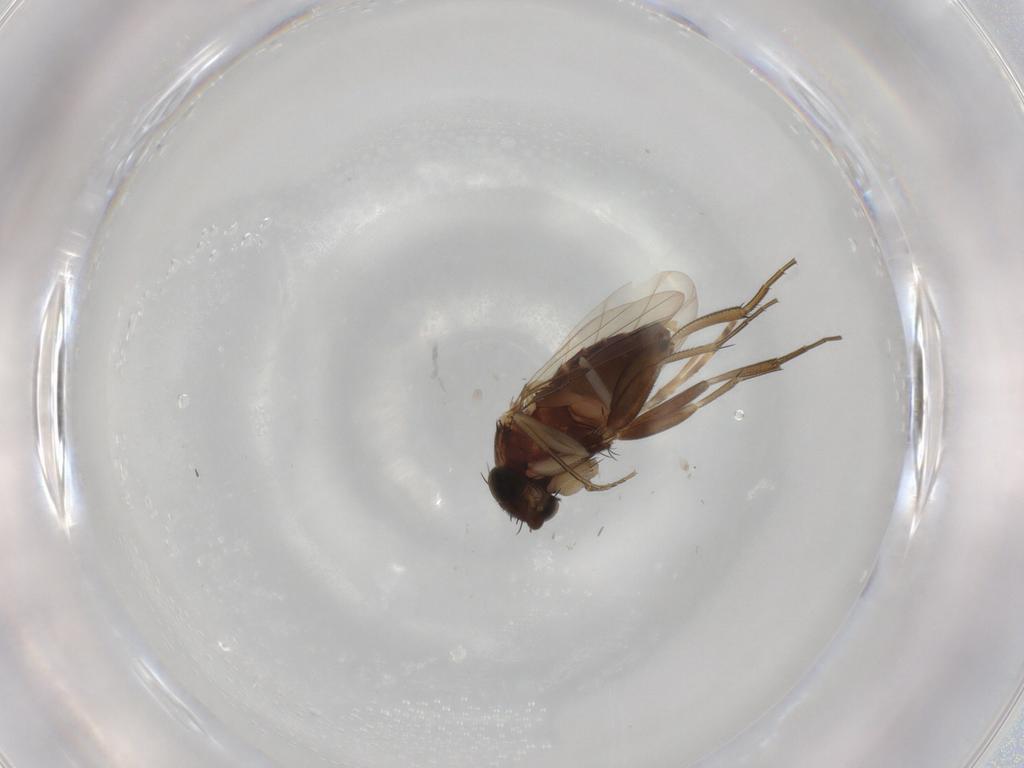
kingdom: Animalia
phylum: Arthropoda
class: Insecta
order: Diptera
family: Phoridae
